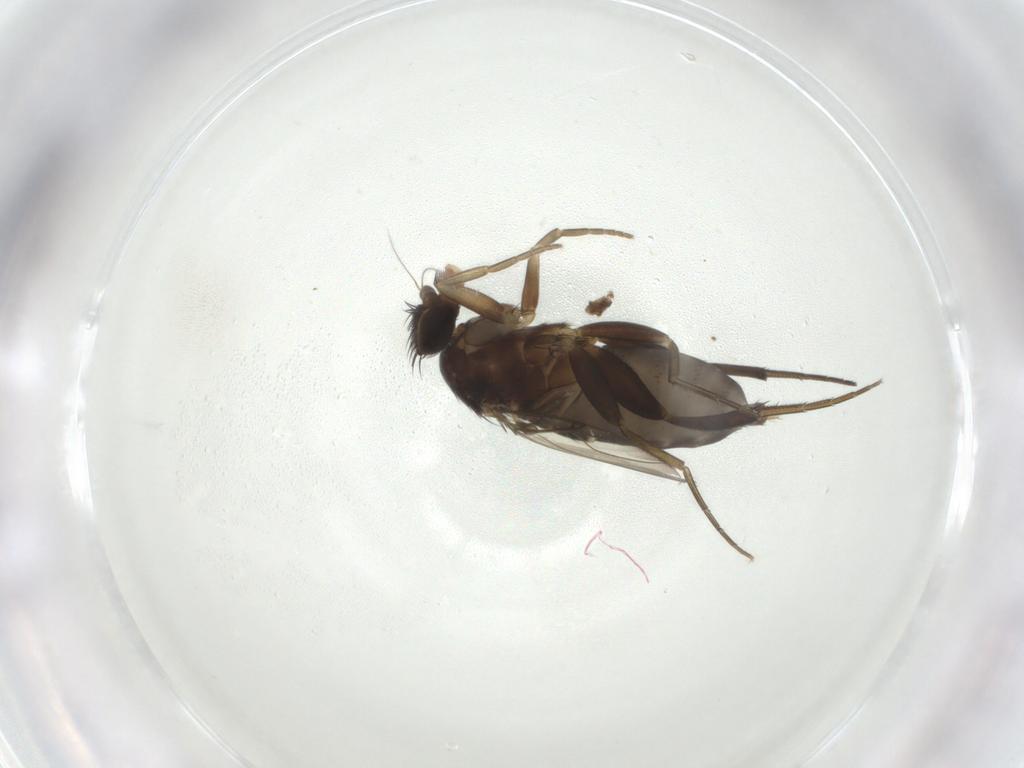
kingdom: Animalia
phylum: Arthropoda
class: Insecta
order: Diptera
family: Phoridae
